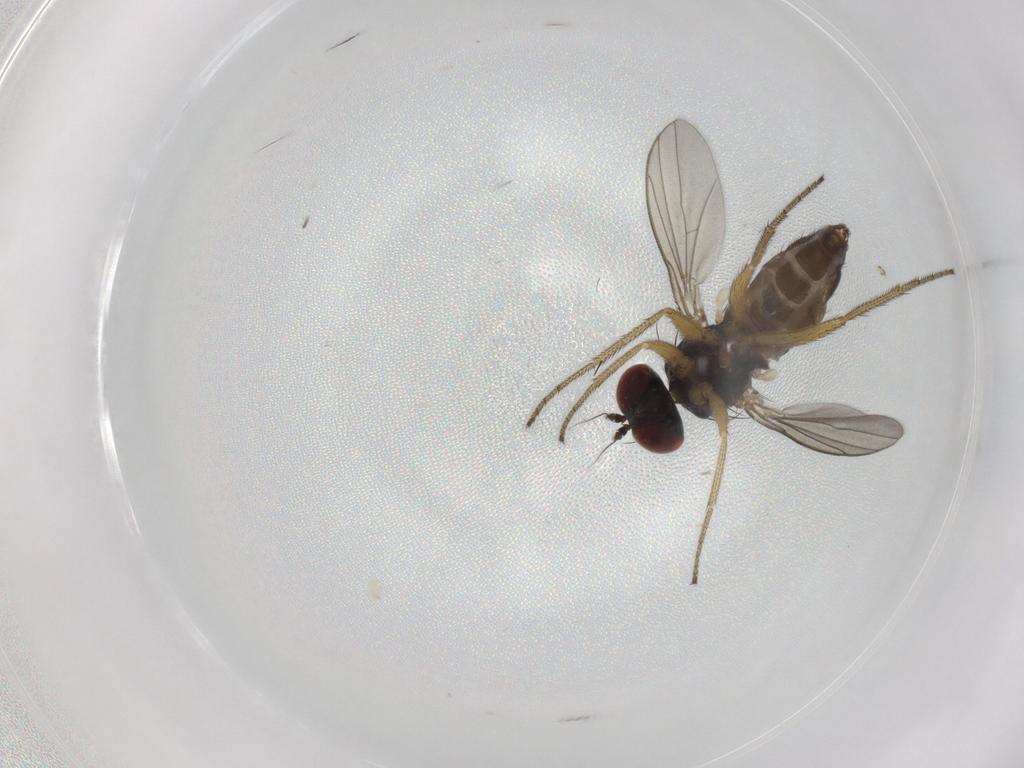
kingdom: Animalia
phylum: Arthropoda
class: Insecta
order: Diptera
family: Dolichopodidae
